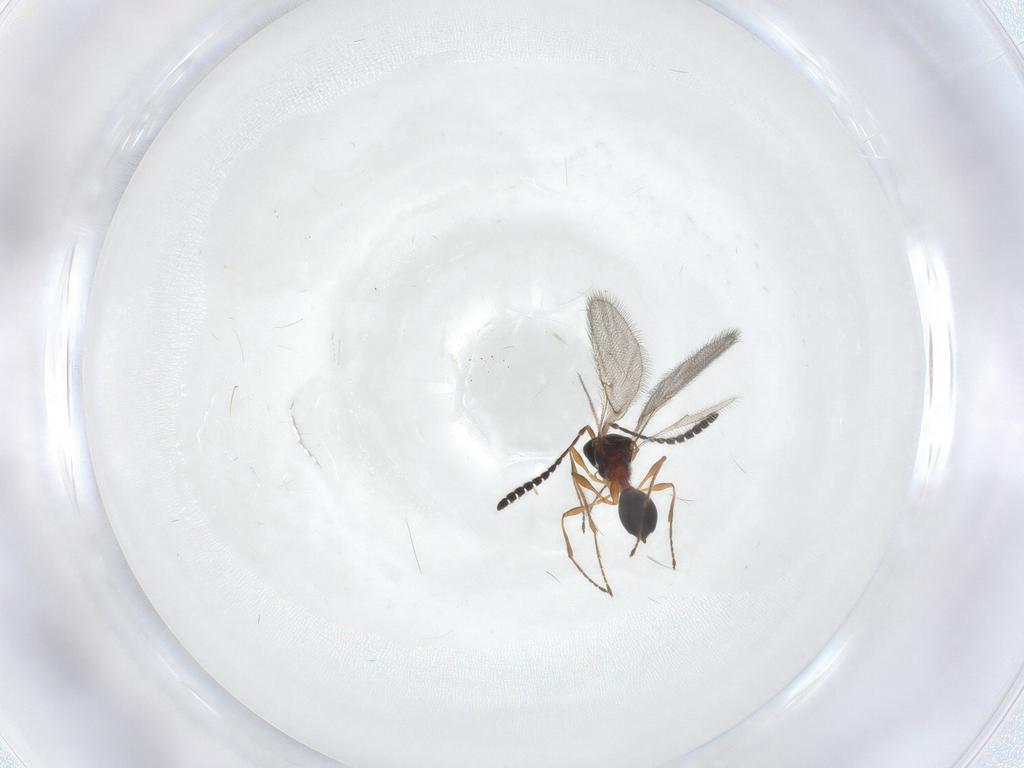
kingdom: Animalia
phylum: Arthropoda
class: Insecta
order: Hymenoptera
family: Diapriidae
